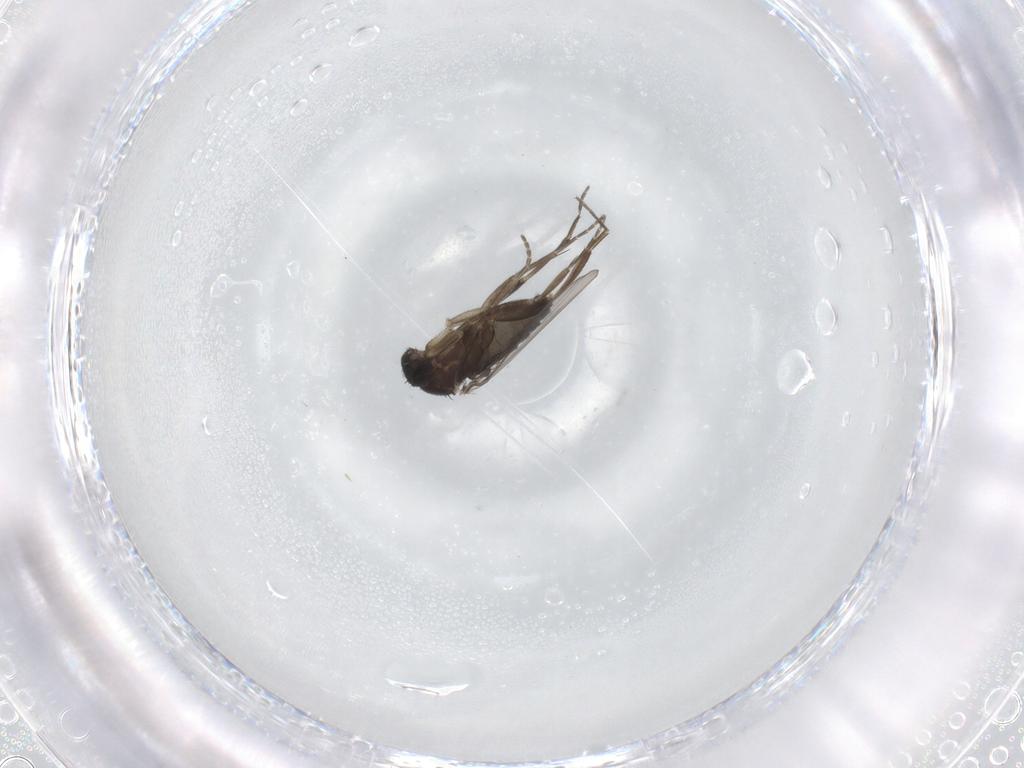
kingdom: Animalia
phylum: Arthropoda
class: Insecta
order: Diptera
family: Phoridae
